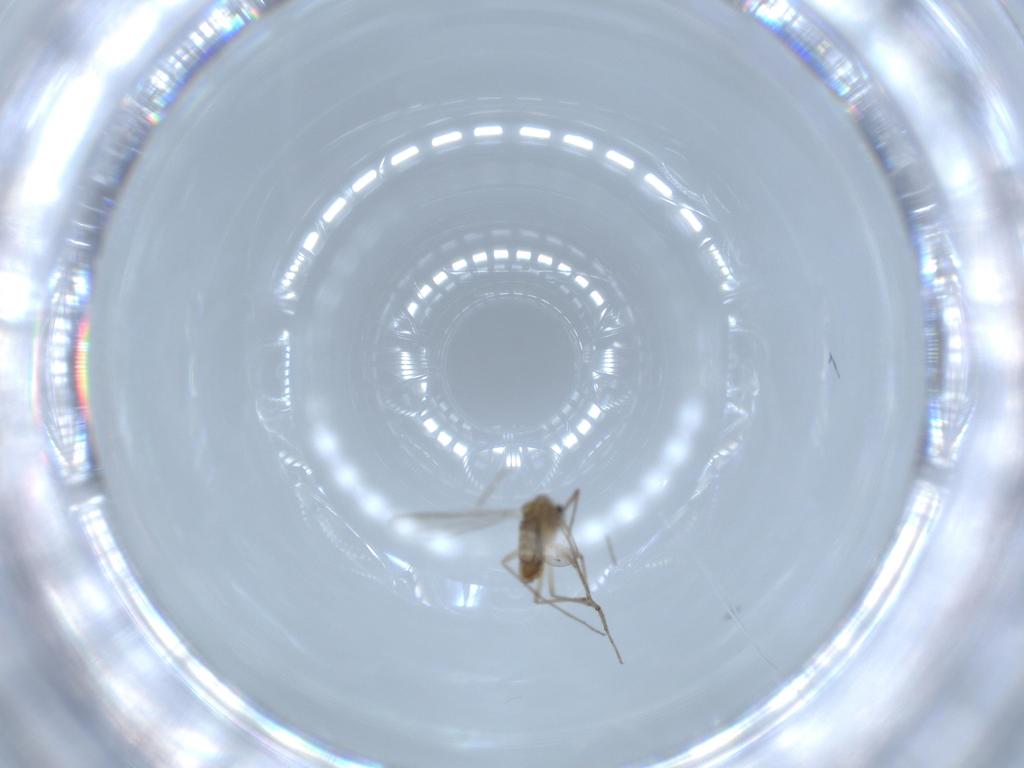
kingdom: Animalia
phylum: Arthropoda
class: Insecta
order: Diptera
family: Chironomidae
